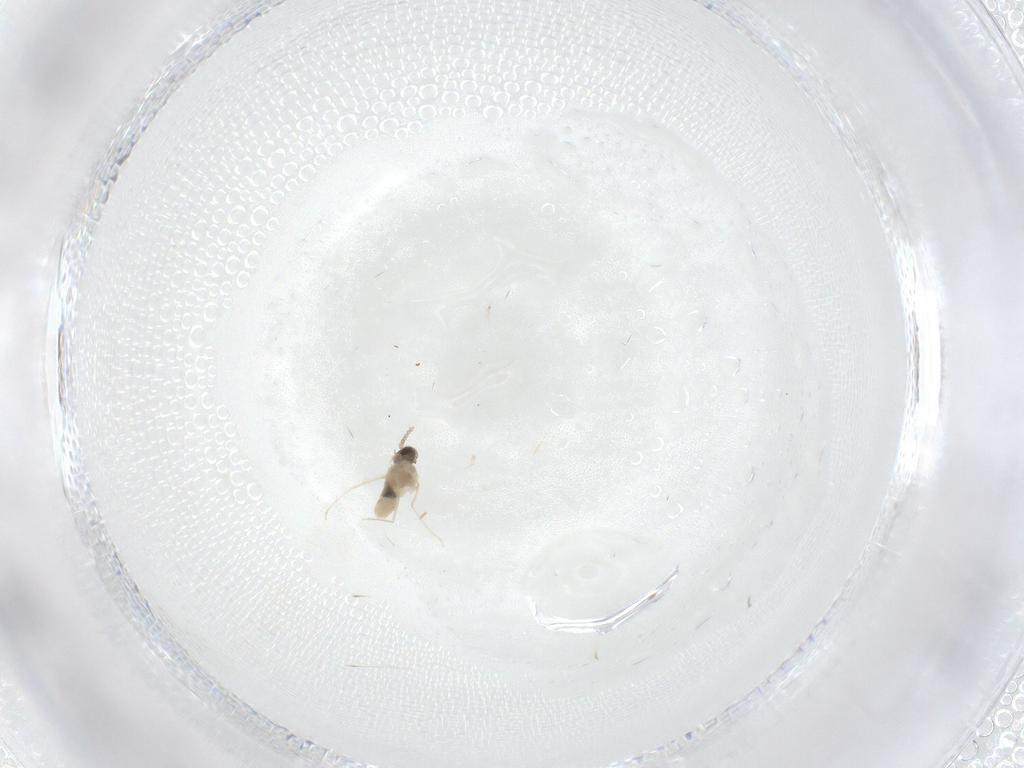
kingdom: Animalia
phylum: Arthropoda
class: Insecta
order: Diptera
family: Cecidomyiidae
